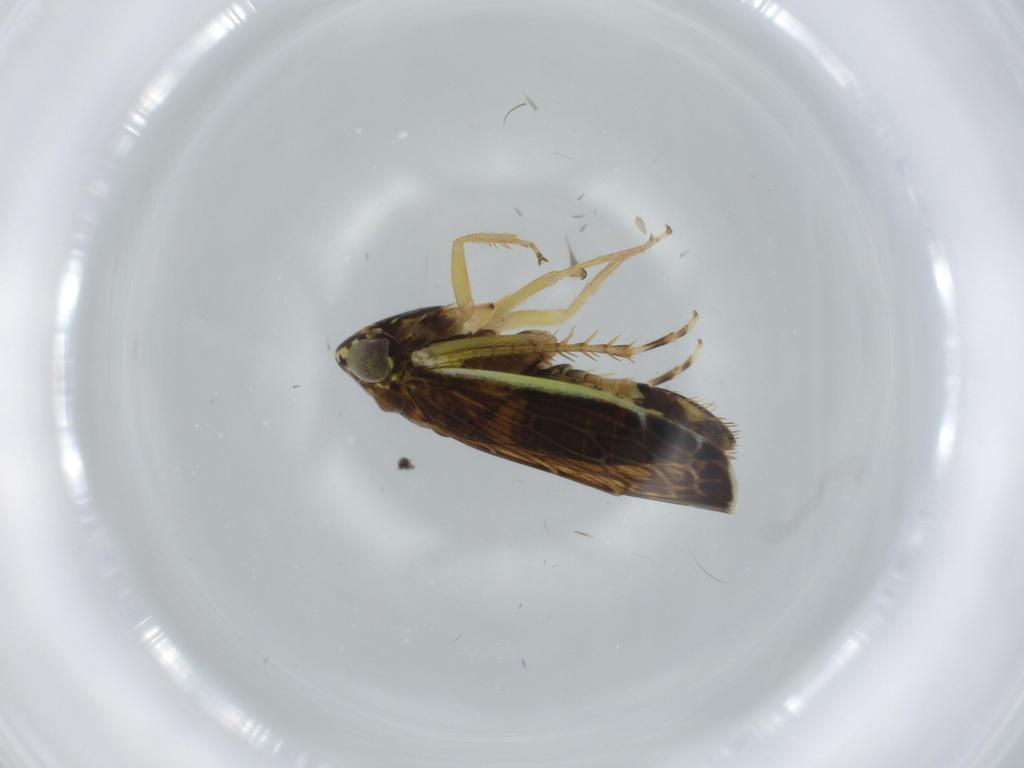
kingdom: Animalia
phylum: Arthropoda
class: Insecta
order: Hemiptera
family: Cicadellidae
